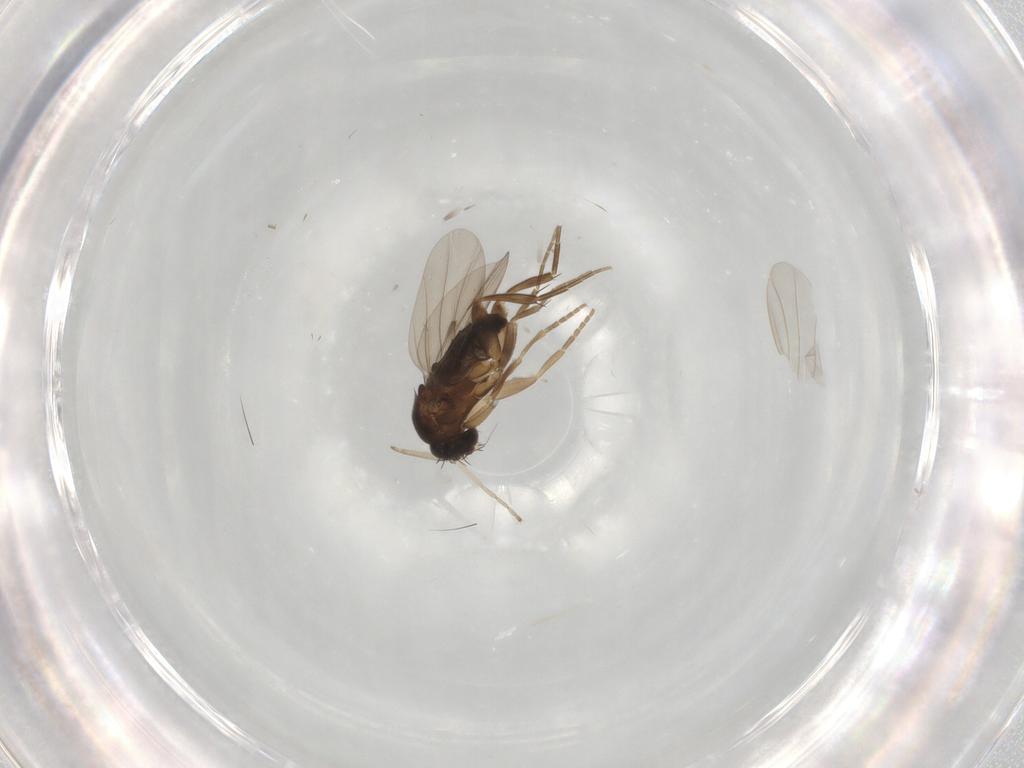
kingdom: Animalia
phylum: Arthropoda
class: Insecta
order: Diptera
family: Phoridae
